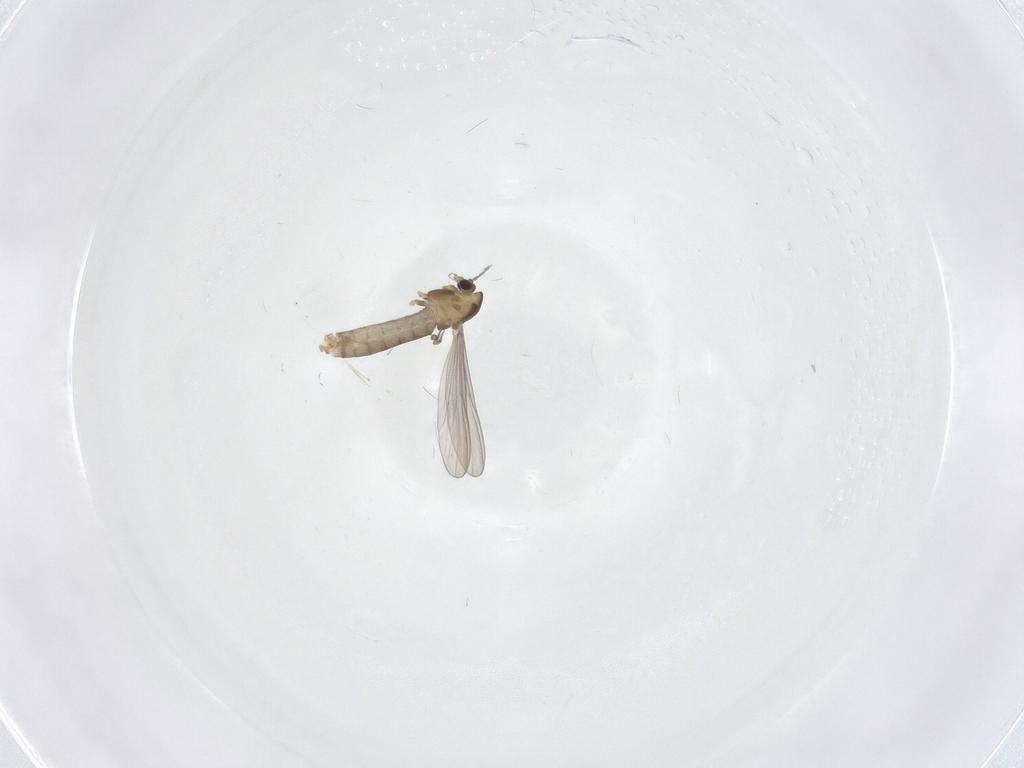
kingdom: Animalia
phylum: Arthropoda
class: Insecta
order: Diptera
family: Chironomidae
